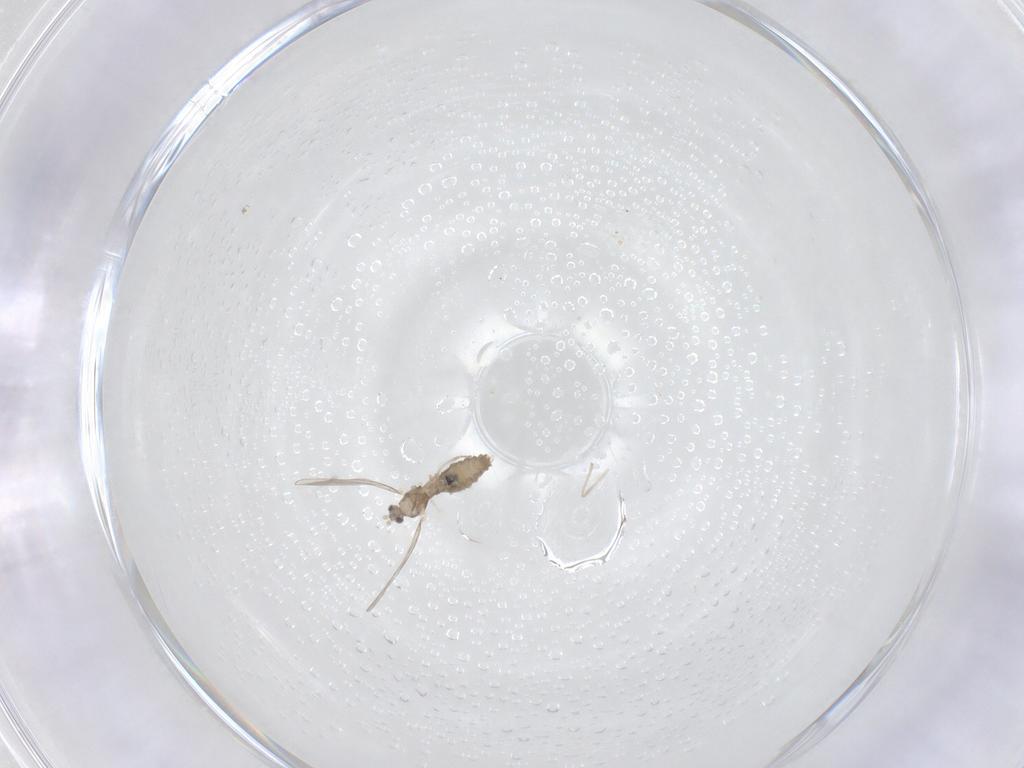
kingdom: Animalia
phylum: Arthropoda
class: Insecta
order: Diptera
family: Cecidomyiidae
